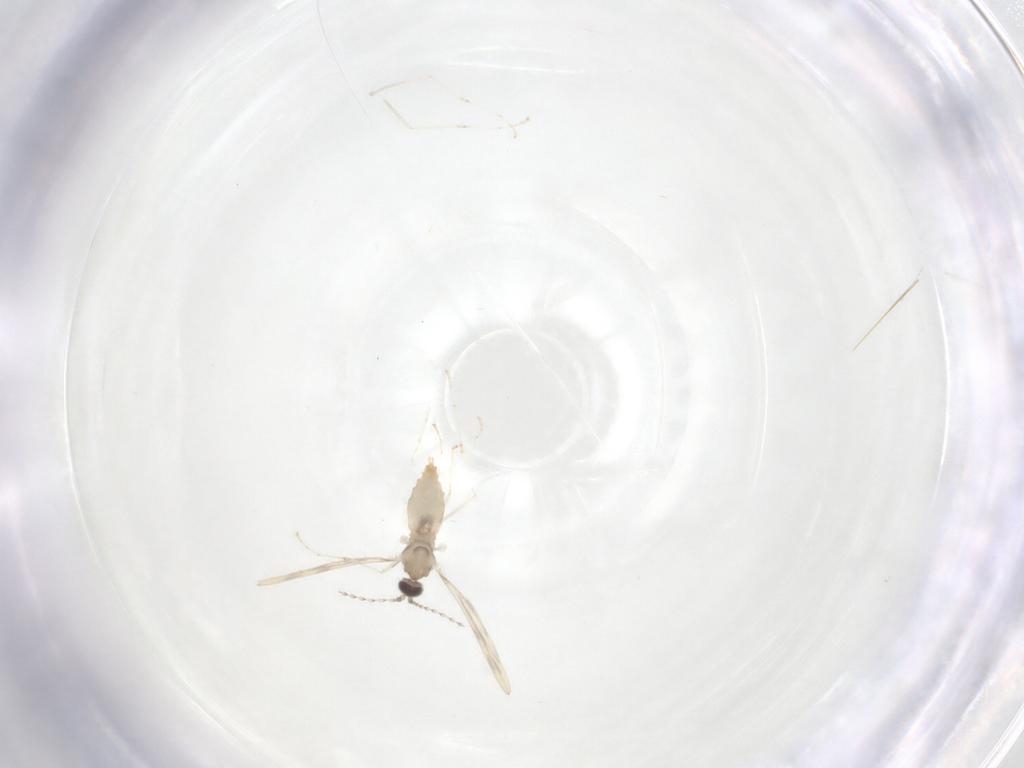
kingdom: Animalia
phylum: Arthropoda
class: Insecta
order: Diptera
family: Cecidomyiidae
